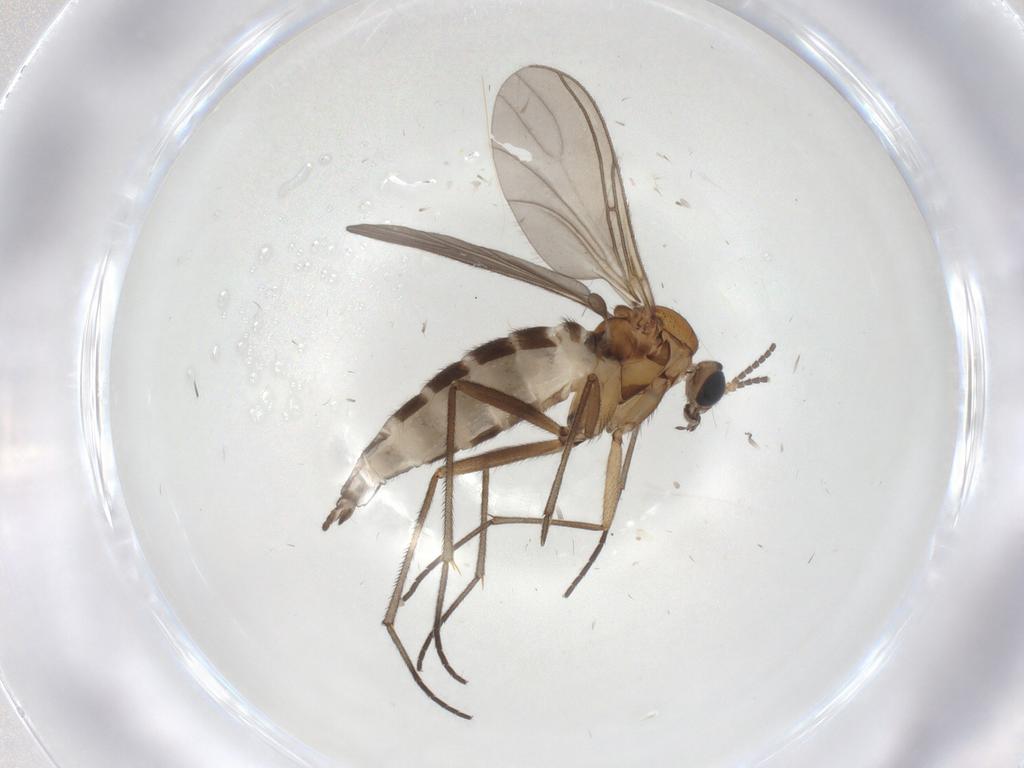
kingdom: Animalia
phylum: Arthropoda
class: Insecta
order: Diptera
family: Sciaridae
